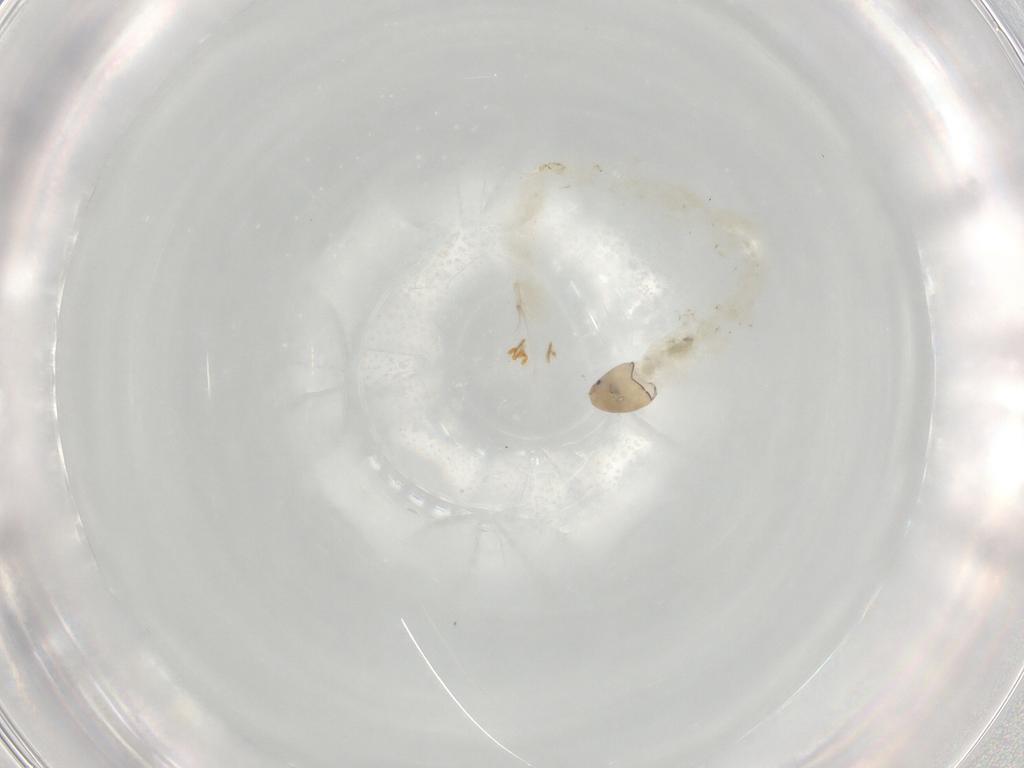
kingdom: Animalia
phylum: Arthropoda
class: Insecta
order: Diptera
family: Chironomidae
